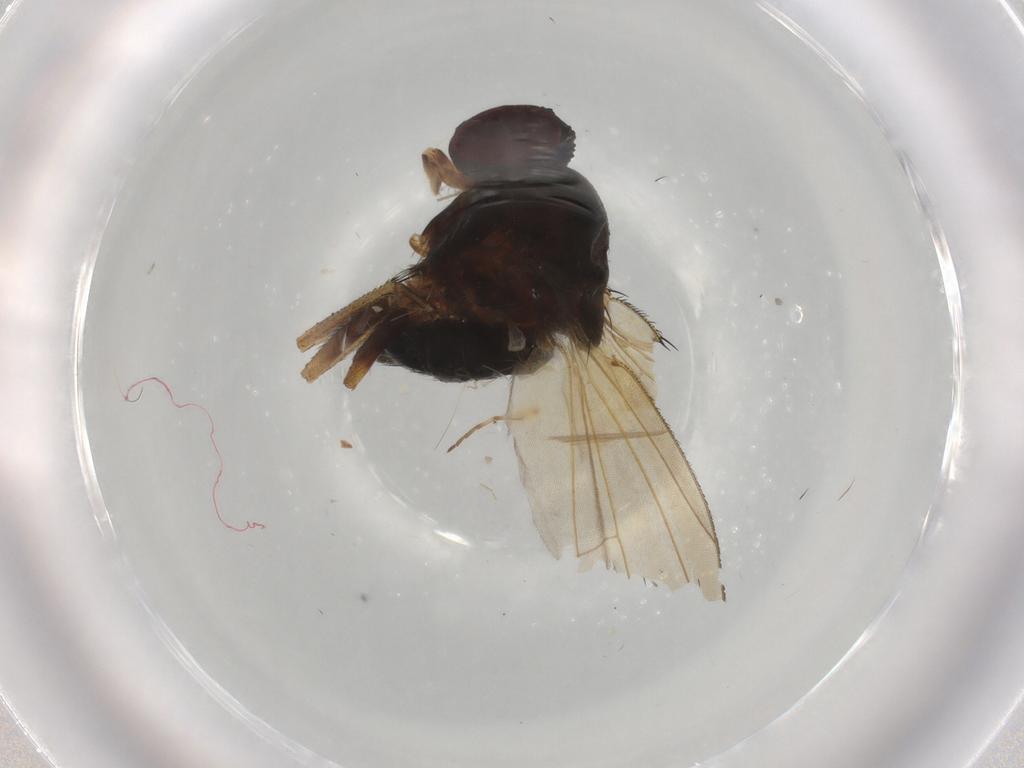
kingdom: Animalia
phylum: Arthropoda
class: Insecta
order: Diptera
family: Ephydridae
